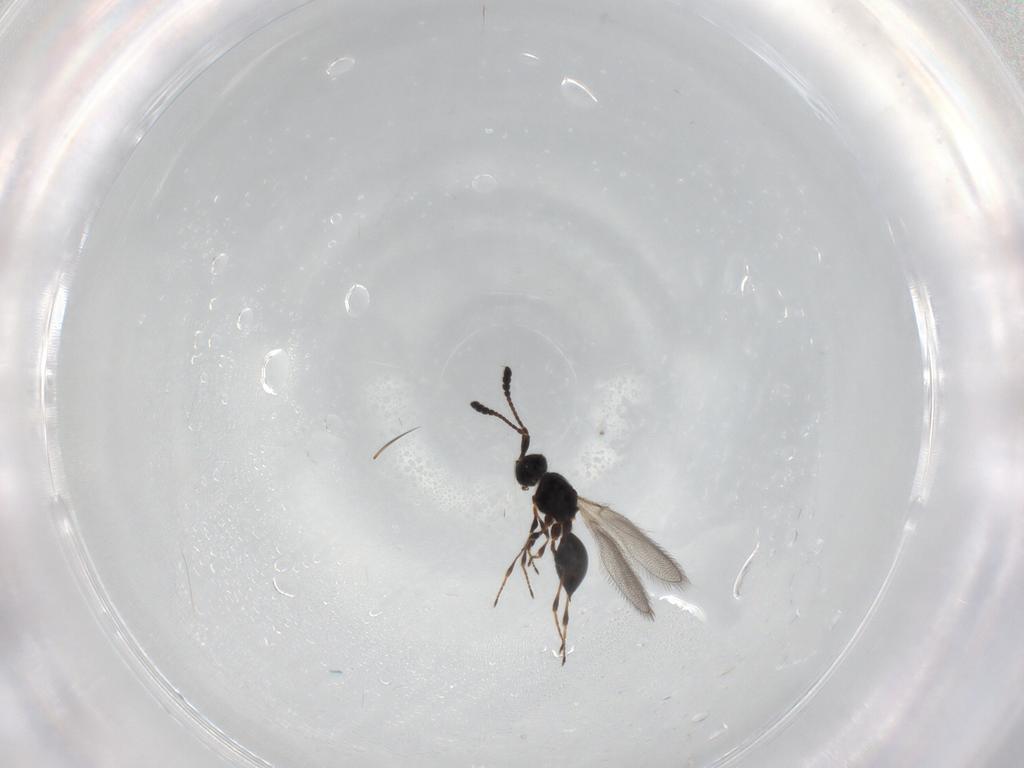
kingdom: Animalia
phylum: Arthropoda
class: Insecta
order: Hymenoptera
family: Diapriidae
